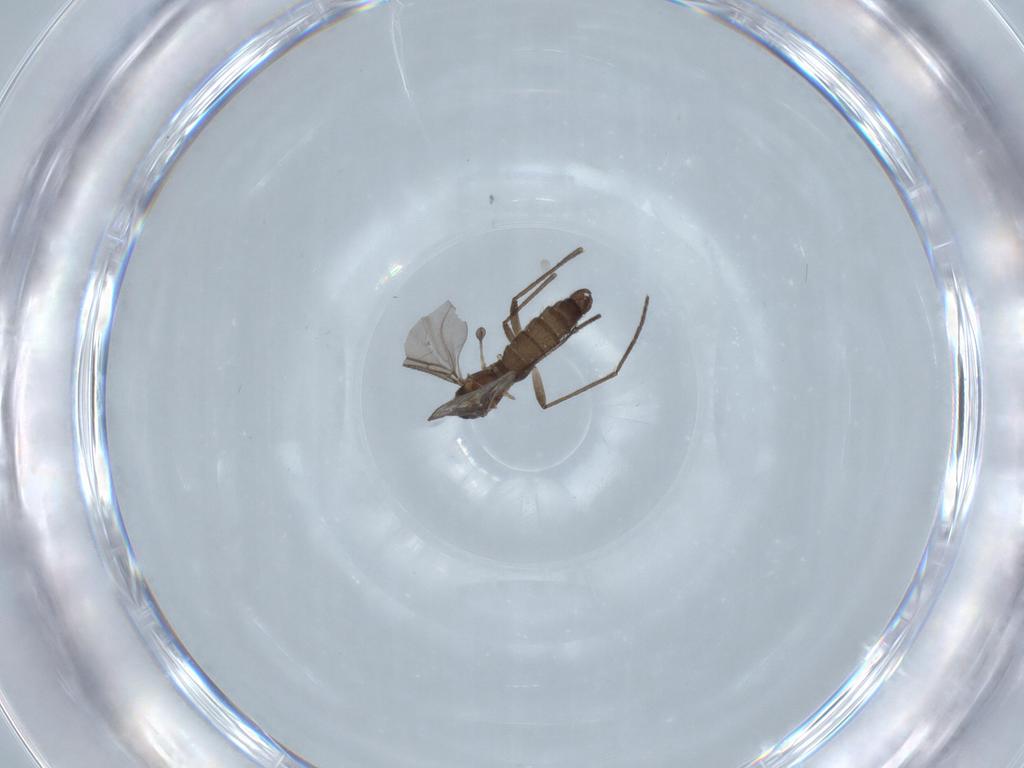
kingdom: Animalia
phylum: Arthropoda
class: Insecta
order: Diptera
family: Sciaridae
